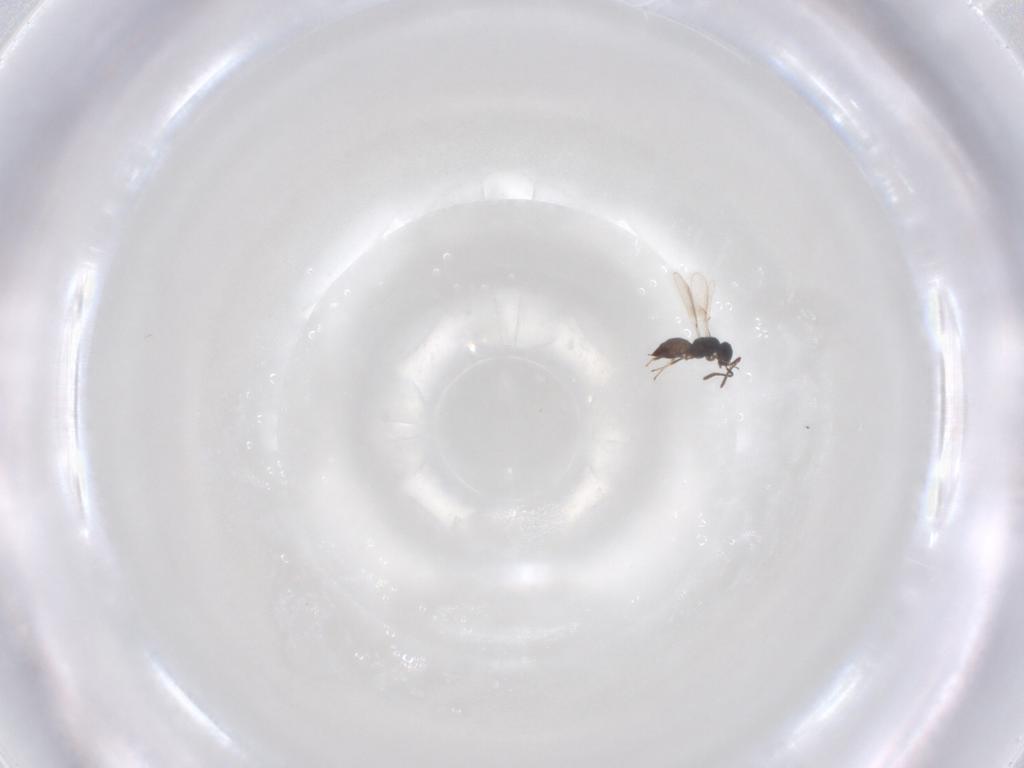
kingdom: Animalia
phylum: Arthropoda
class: Insecta
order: Hymenoptera
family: Scelionidae
